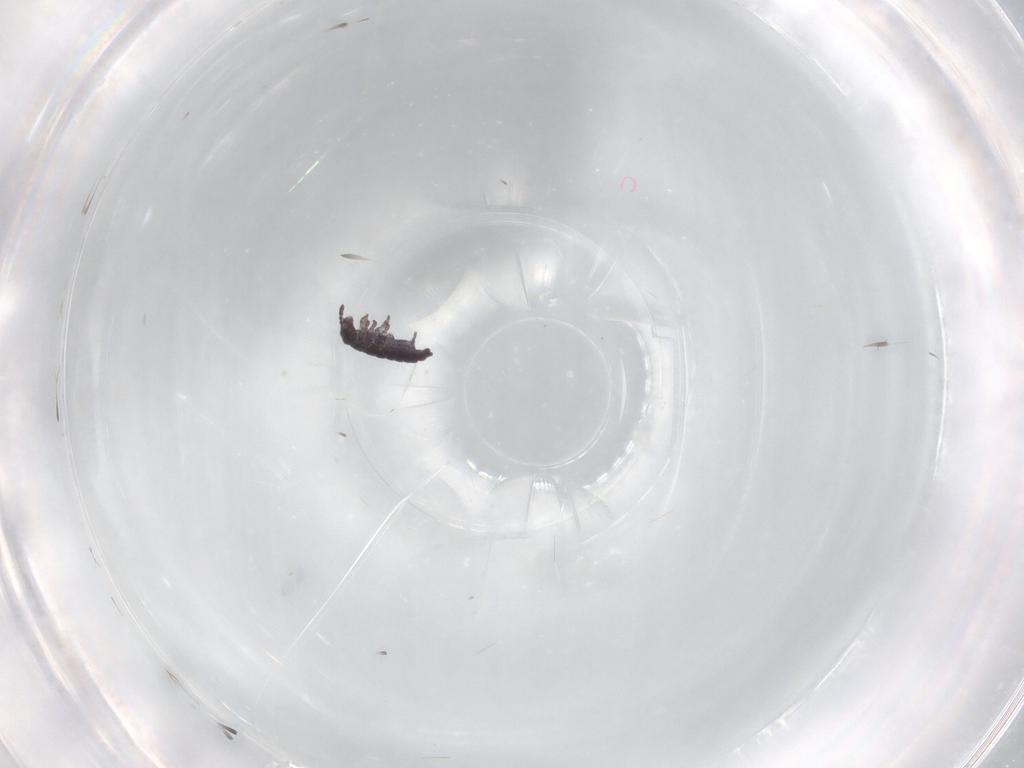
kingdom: Animalia
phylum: Arthropoda
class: Collembola
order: Poduromorpha
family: Hypogastruridae
